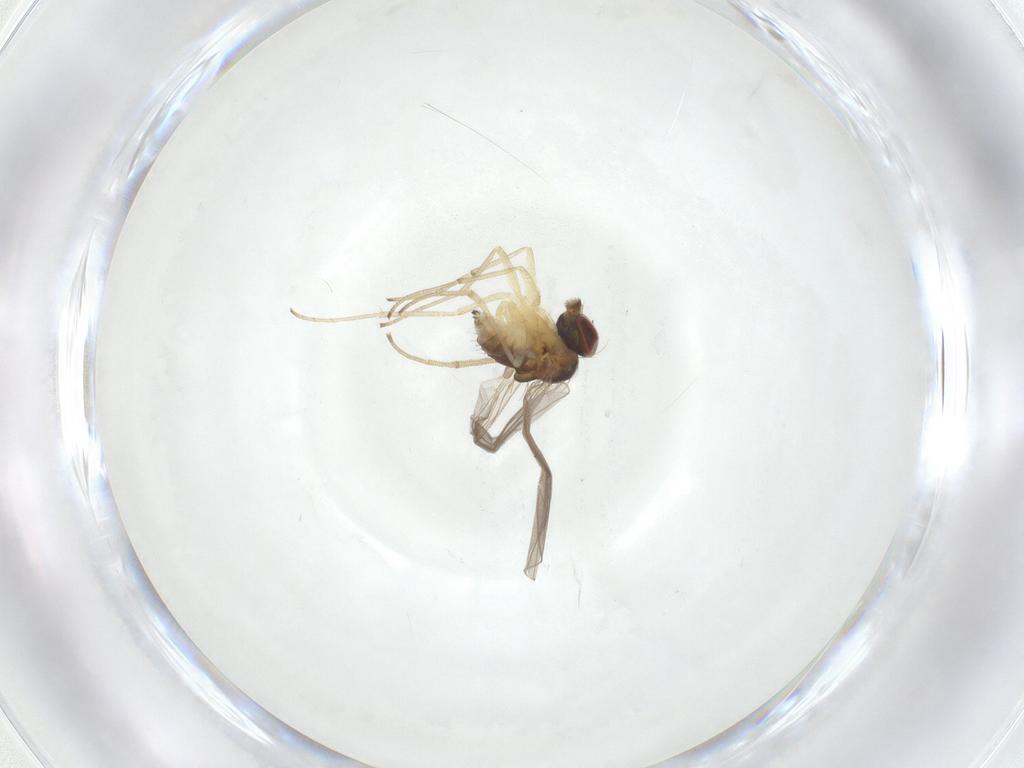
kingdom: Animalia
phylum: Arthropoda
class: Insecta
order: Diptera
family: Dolichopodidae
